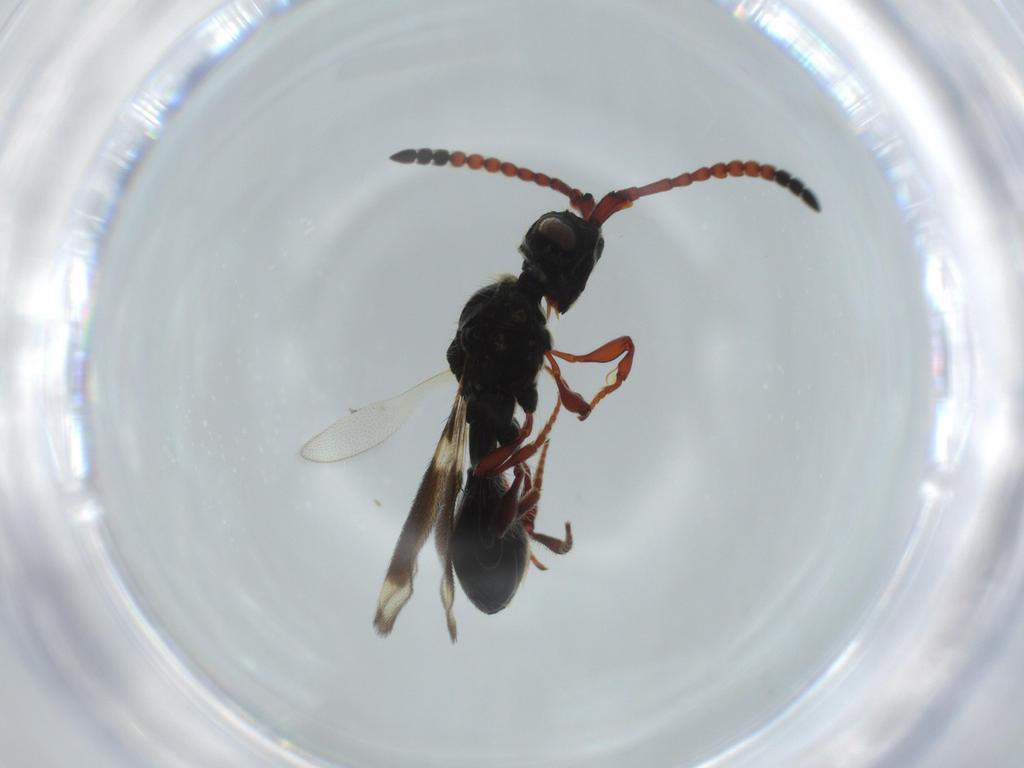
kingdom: Animalia
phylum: Arthropoda
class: Insecta
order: Hymenoptera
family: Diapriidae
